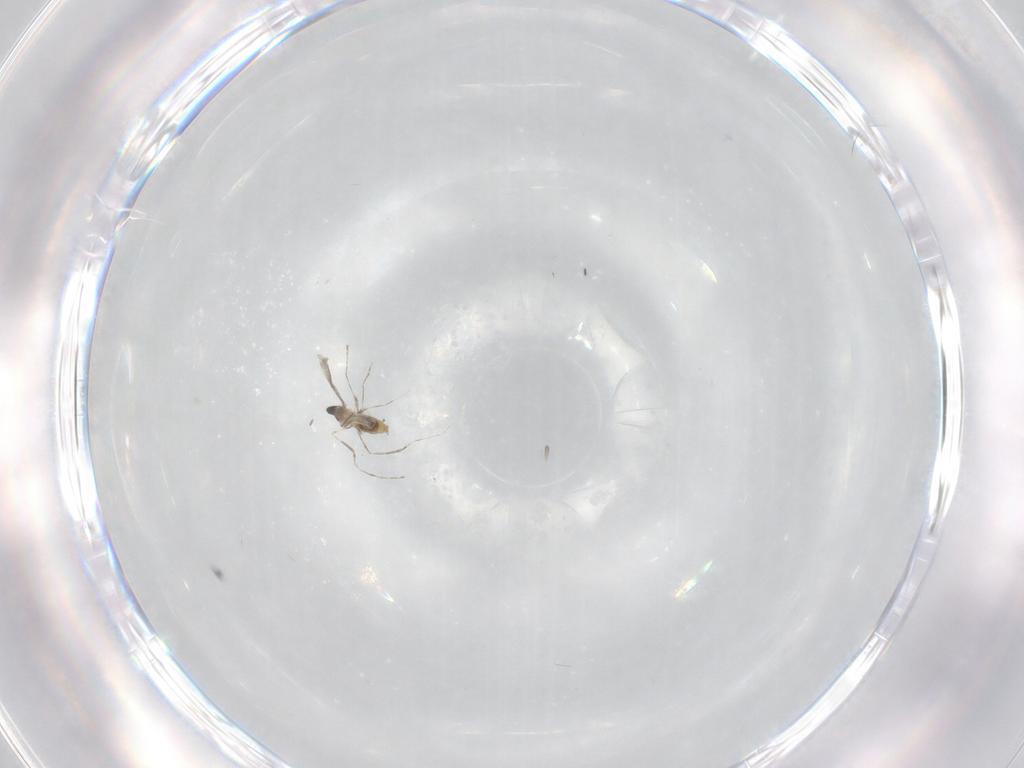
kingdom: Animalia
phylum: Arthropoda
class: Insecta
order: Diptera
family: Cecidomyiidae
